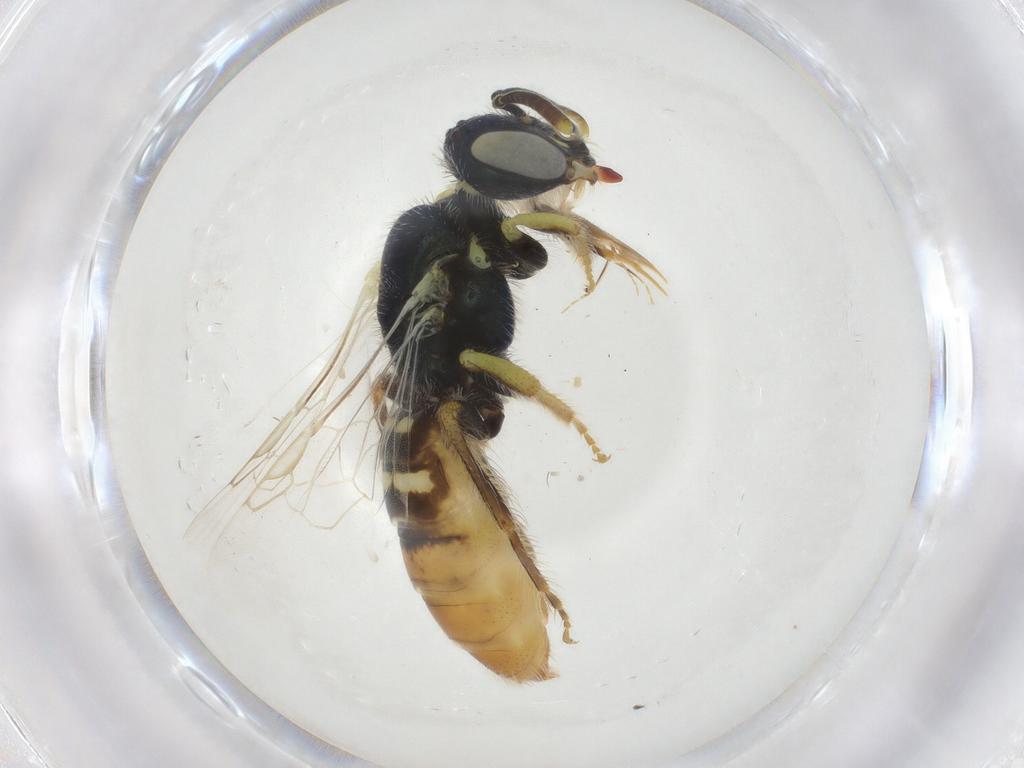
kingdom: Animalia
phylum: Arthropoda
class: Insecta
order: Hymenoptera
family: Andrenidae
